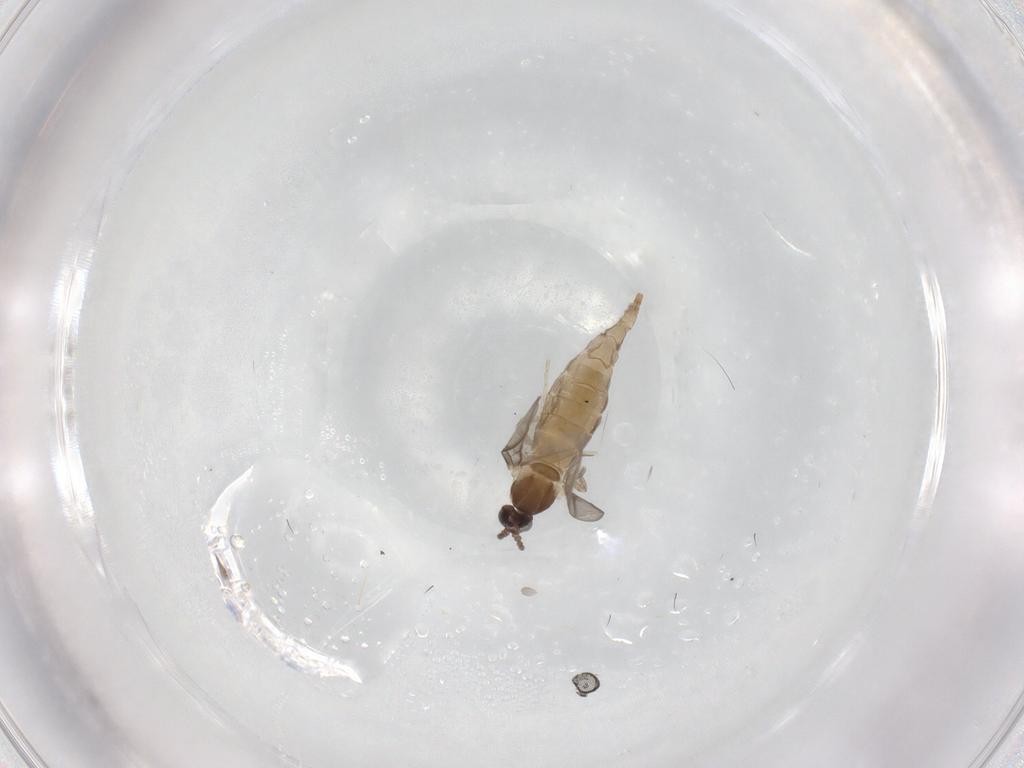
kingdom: Animalia
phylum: Arthropoda
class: Insecta
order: Diptera
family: Cecidomyiidae
